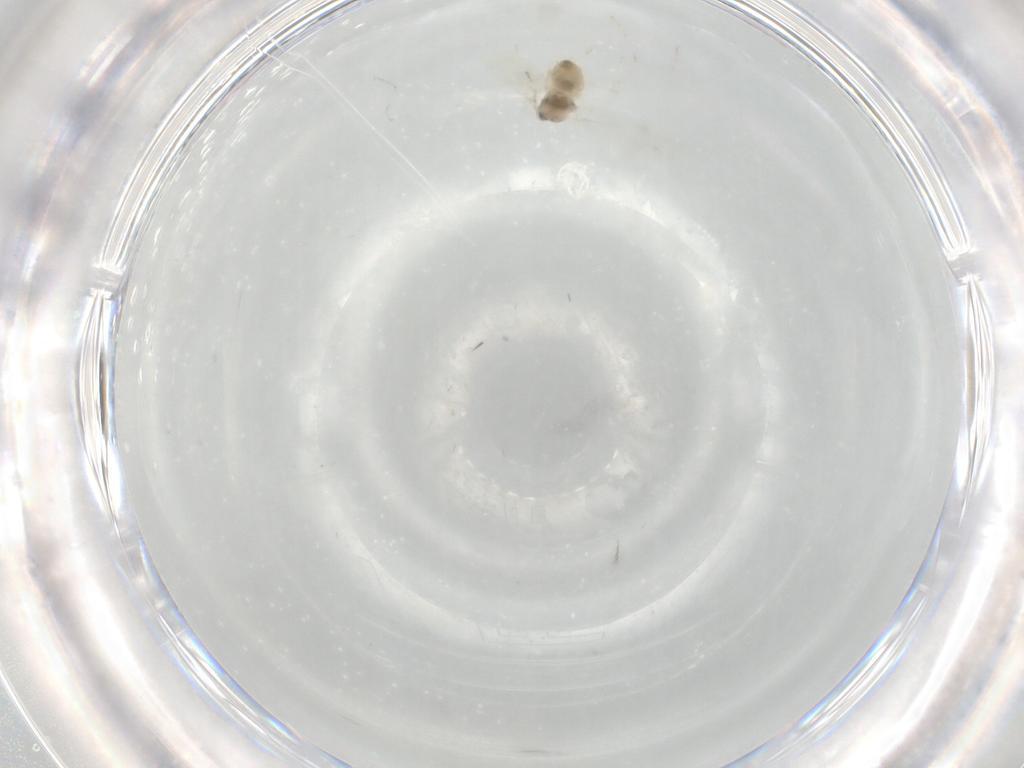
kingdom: Animalia
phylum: Arthropoda
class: Insecta
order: Diptera
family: Cecidomyiidae
